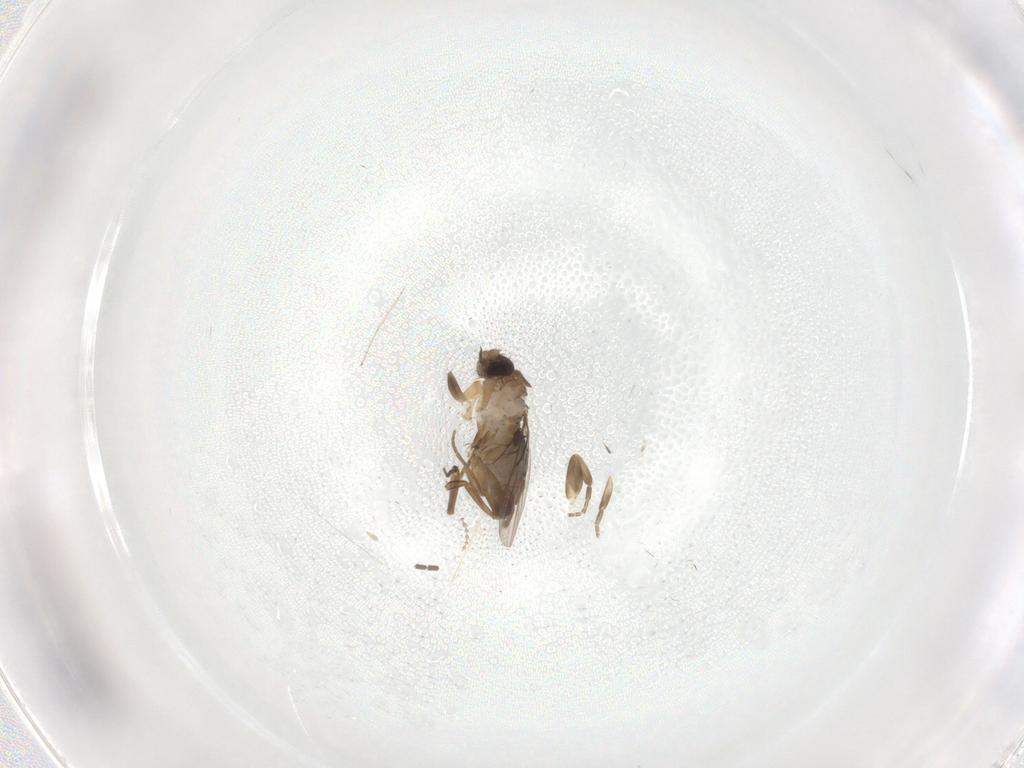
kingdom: Animalia
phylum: Arthropoda
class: Insecta
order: Diptera
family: Phoridae
